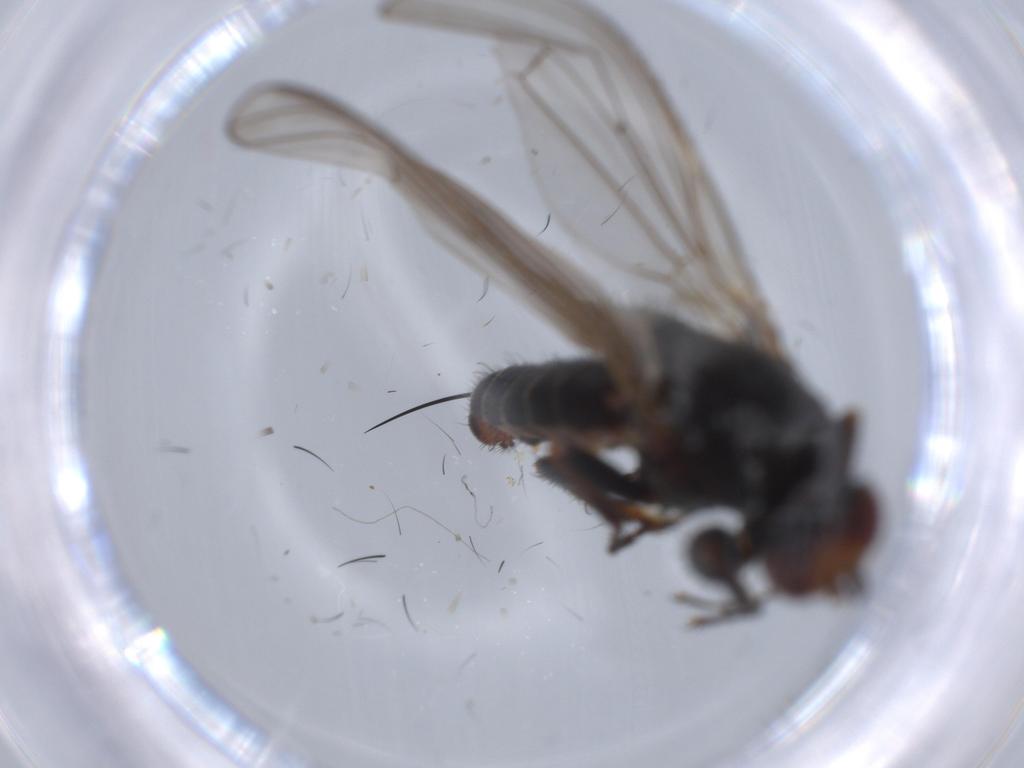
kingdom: Animalia
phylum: Arthropoda
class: Insecta
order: Diptera
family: Heleomyzidae
